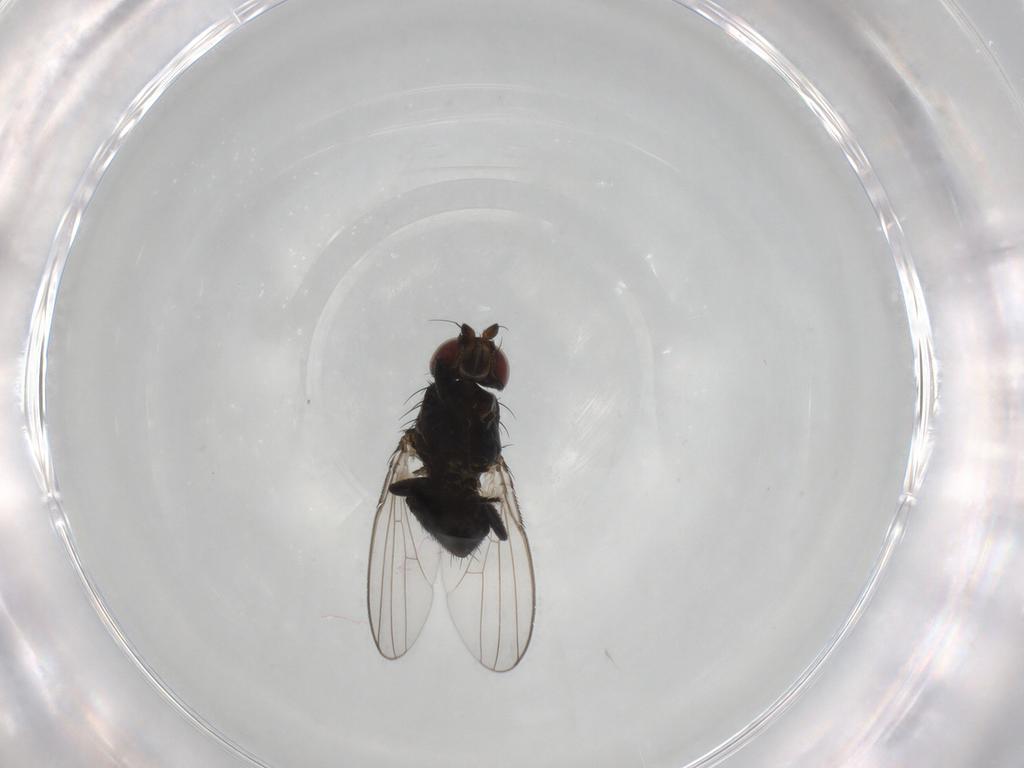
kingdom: Animalia
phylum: Arthropoda
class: Insecta
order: Diptera
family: Milichiidae
